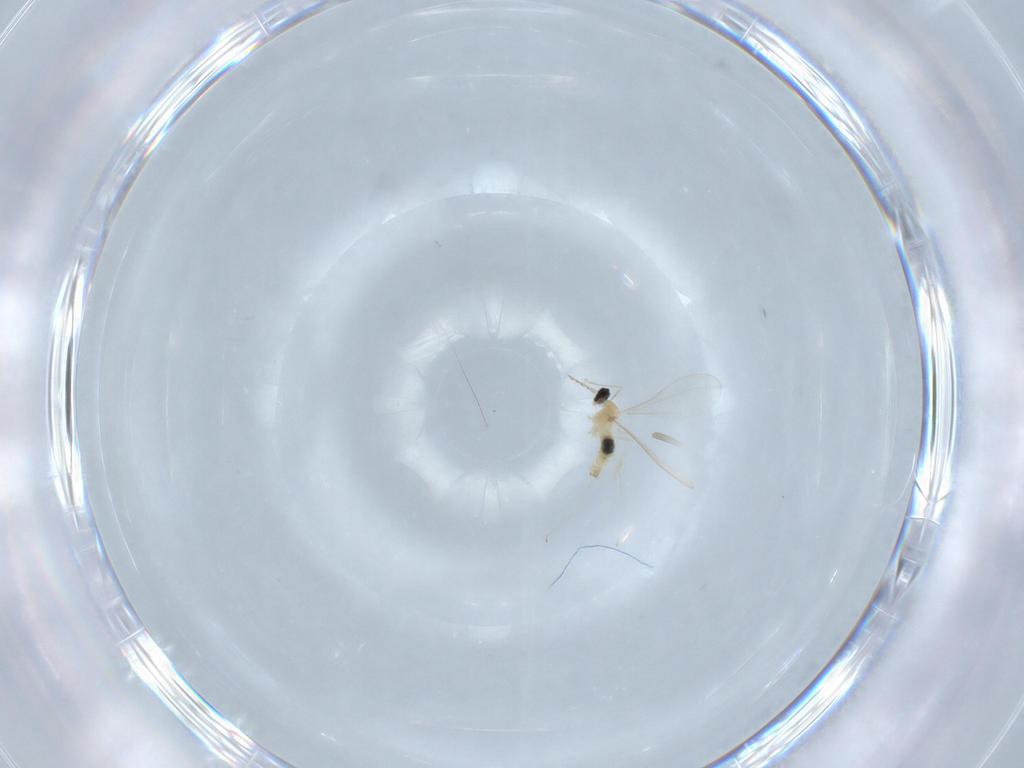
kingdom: Animalia
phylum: Arthropoda
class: Insecta
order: Diptera
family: Cecidomyiidae
